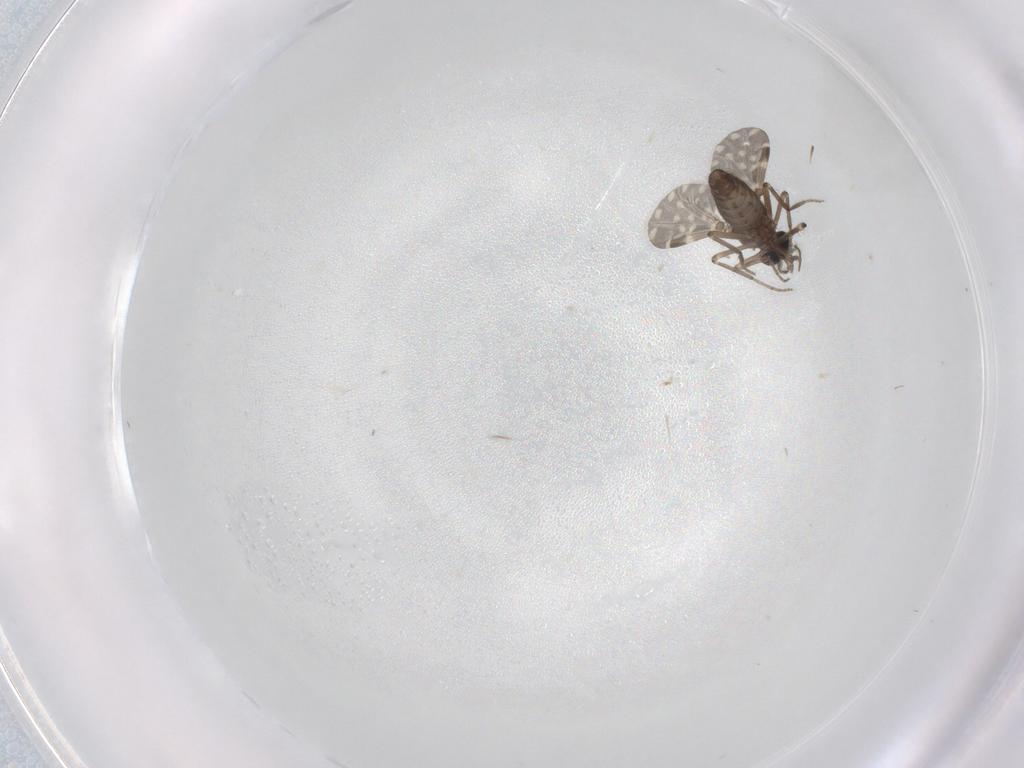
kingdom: Animalia
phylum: Arthropoda
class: Insecta
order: Diptera
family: Ceratopogonidae
